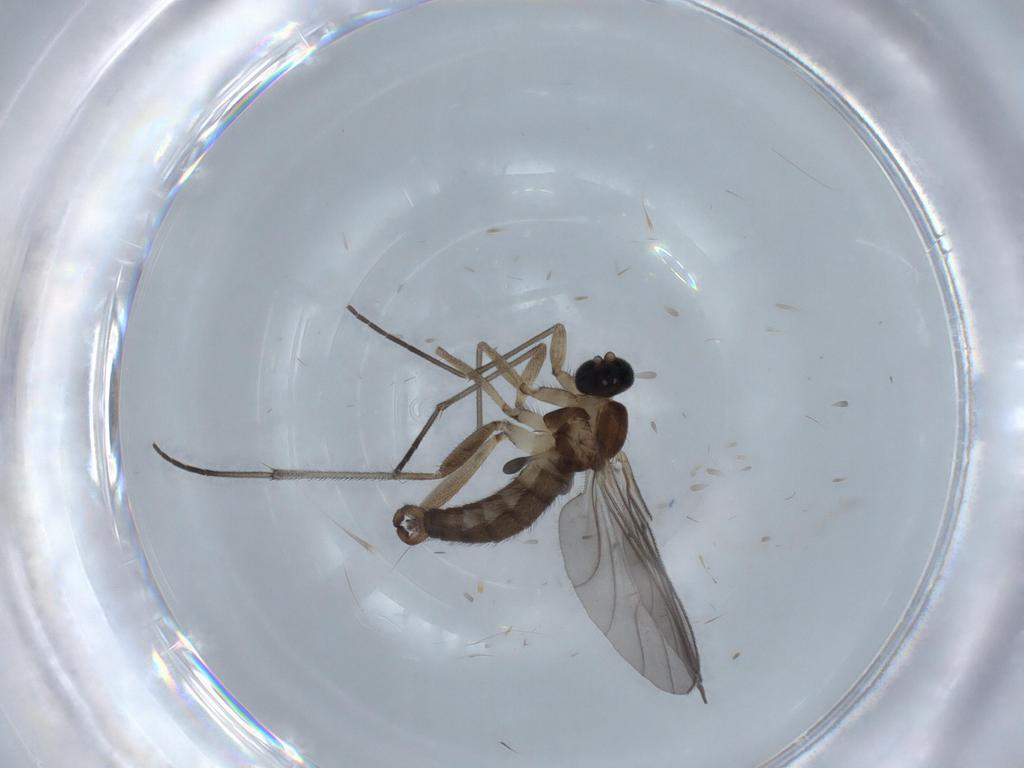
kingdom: Animalia
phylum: Arthropoda
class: Insecta
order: Diptera
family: Sciaridae
